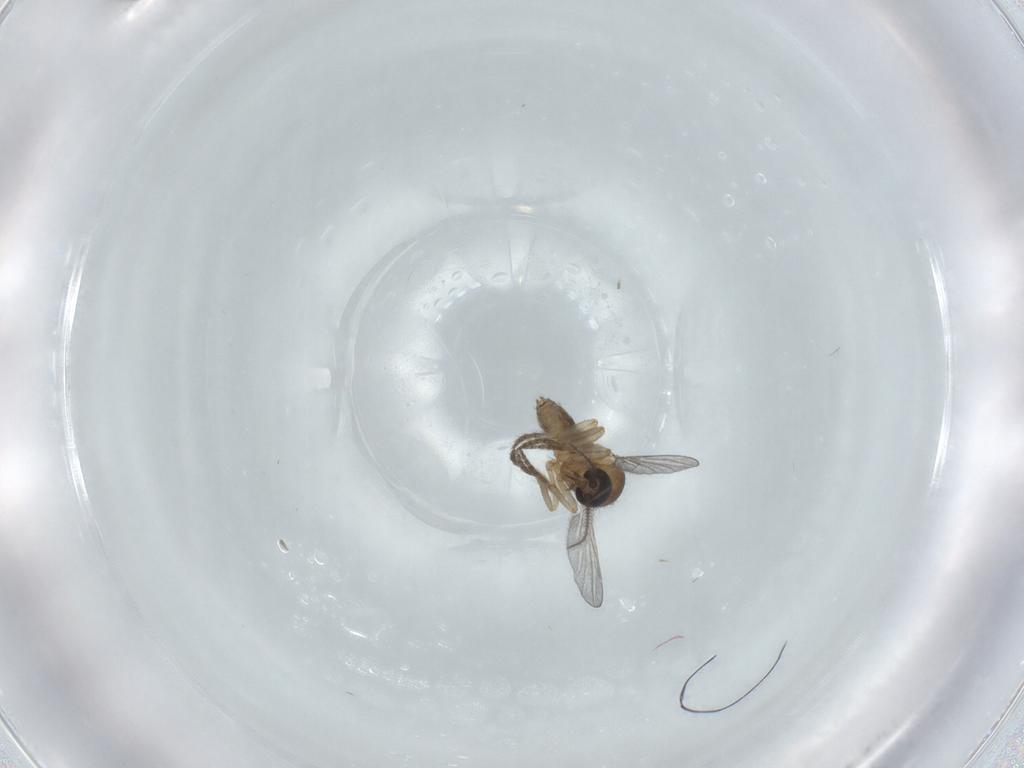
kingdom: Animalia
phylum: Arthropoda
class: Insecta
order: Diptera
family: Ceratopogonidae
